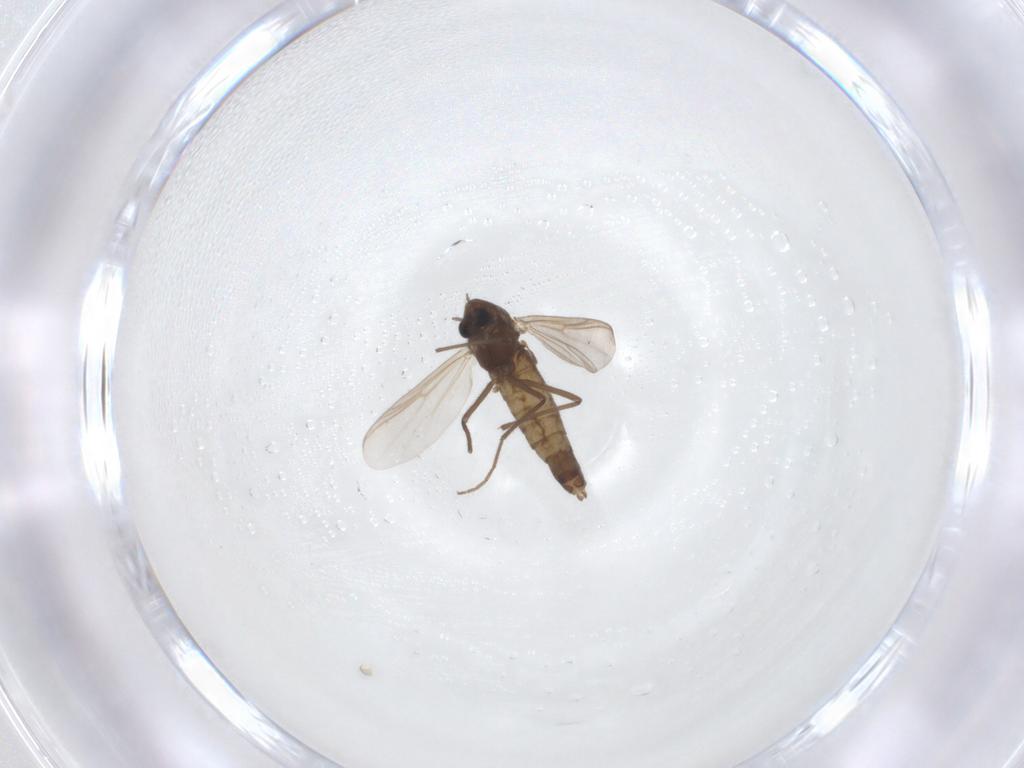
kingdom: Animalia
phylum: Arthropoda
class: Insecta
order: Diptera
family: Chironomidae
